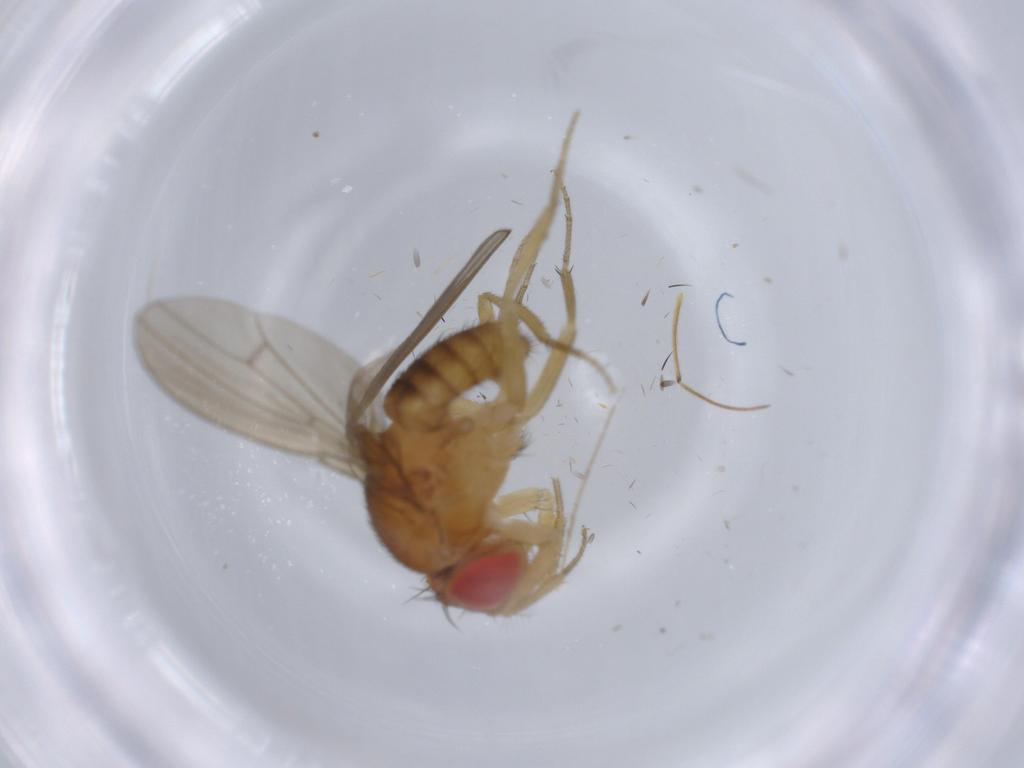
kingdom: Animalia
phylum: Arthropoda
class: Insecta
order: Diptera
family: Drosophilidae
